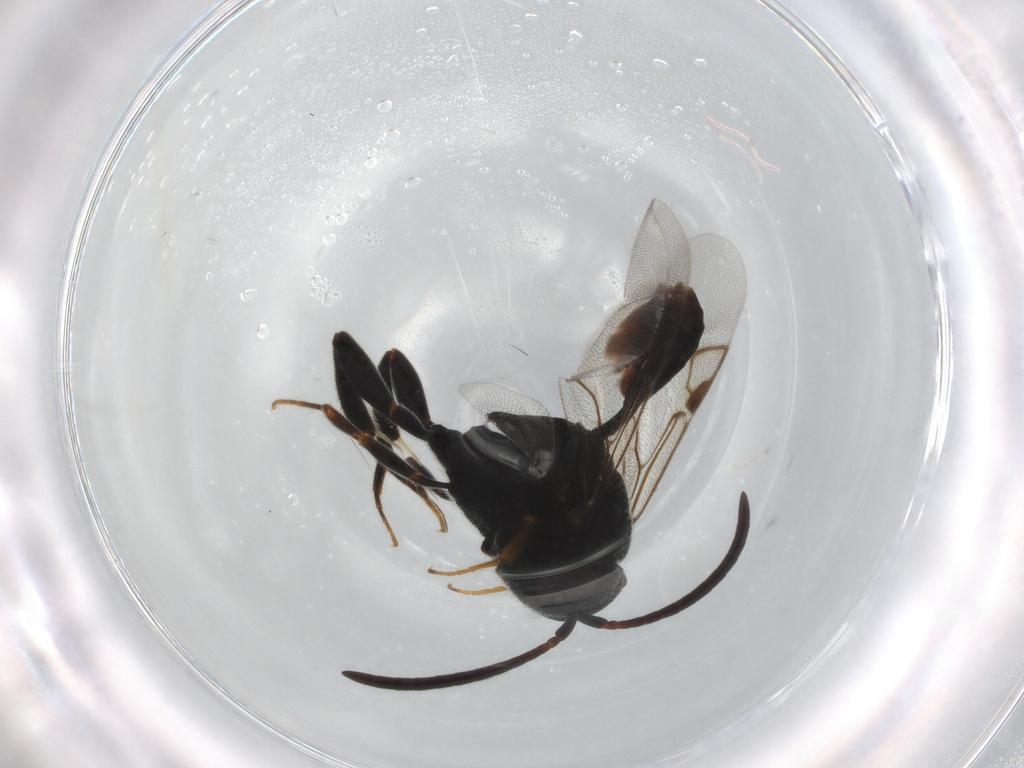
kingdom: Animalia
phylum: Arthropoda
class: Insecta
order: Hymenoptera
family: Evaniidae
